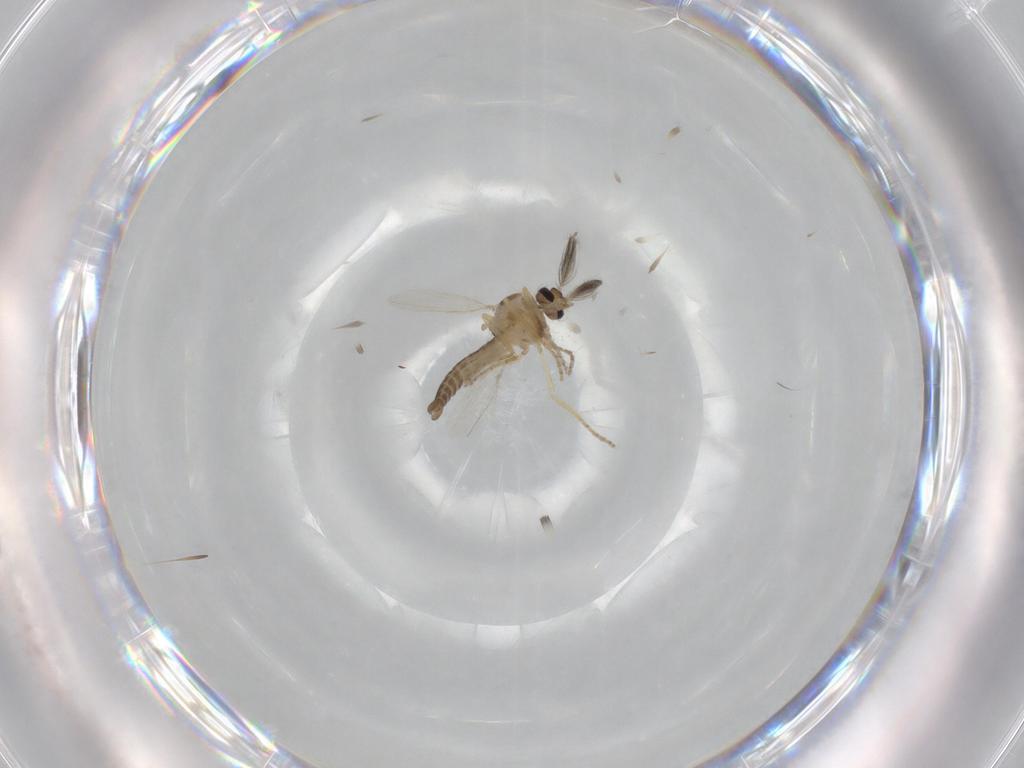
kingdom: Animalia
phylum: Arthropoda
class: Insecta
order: Diptera
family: Ceratopogonidae
